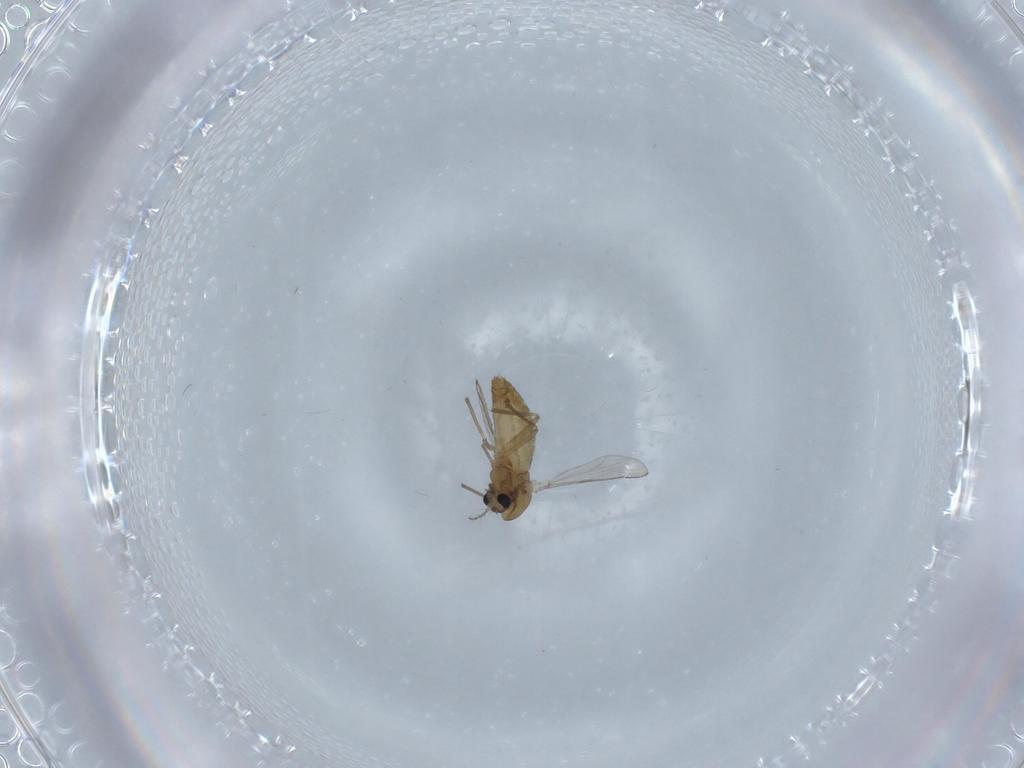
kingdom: Animalia
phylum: Arthropoda
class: Insecta
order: Diptera
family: Chironomidae
